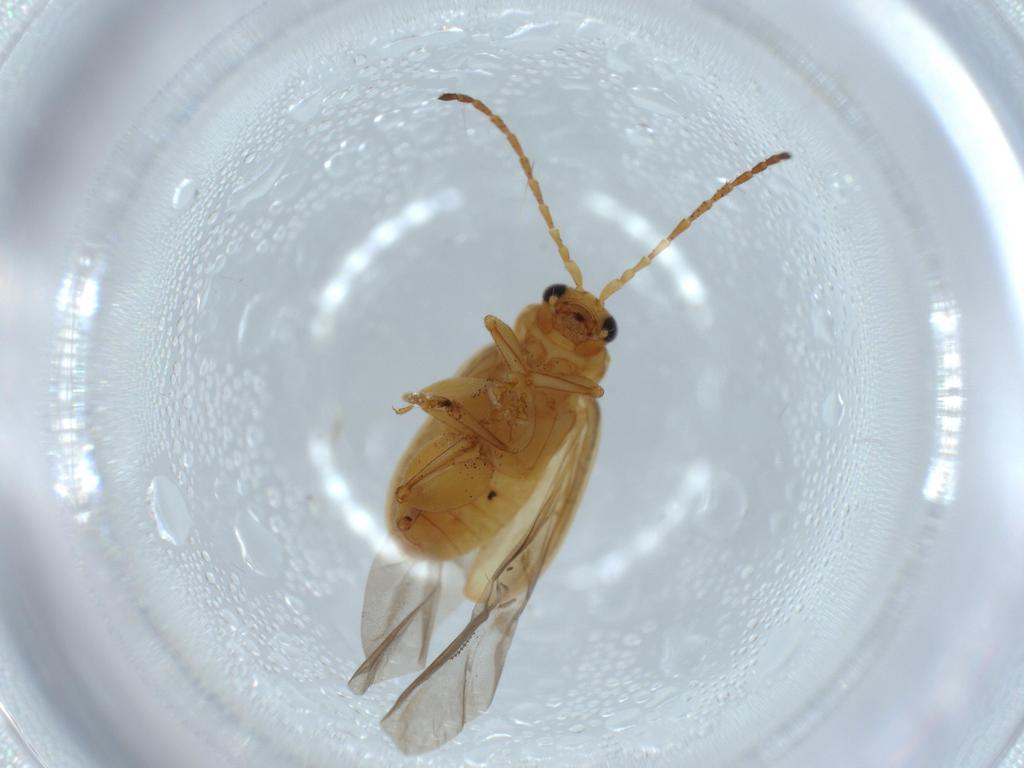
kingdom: Animalia
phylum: Arthropoda
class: Insecta
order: Coleoptera
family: Chrysomelidae
